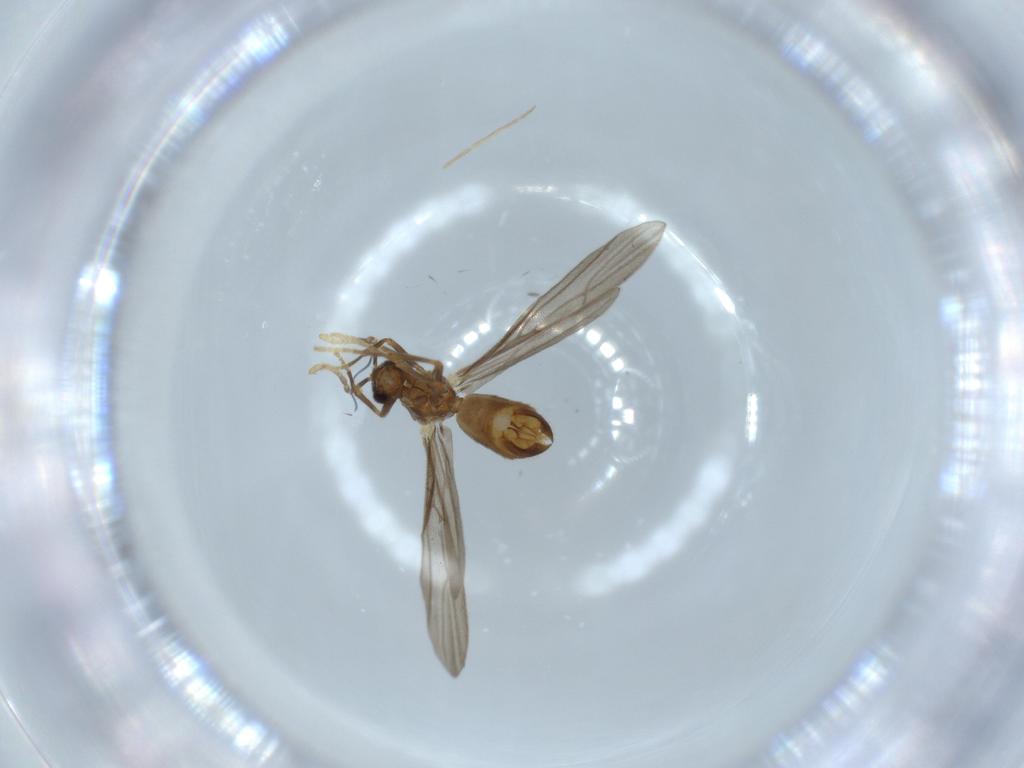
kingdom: Animalia
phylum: Arthropoda
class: Insecta
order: Hymenoptera
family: Formicidae
